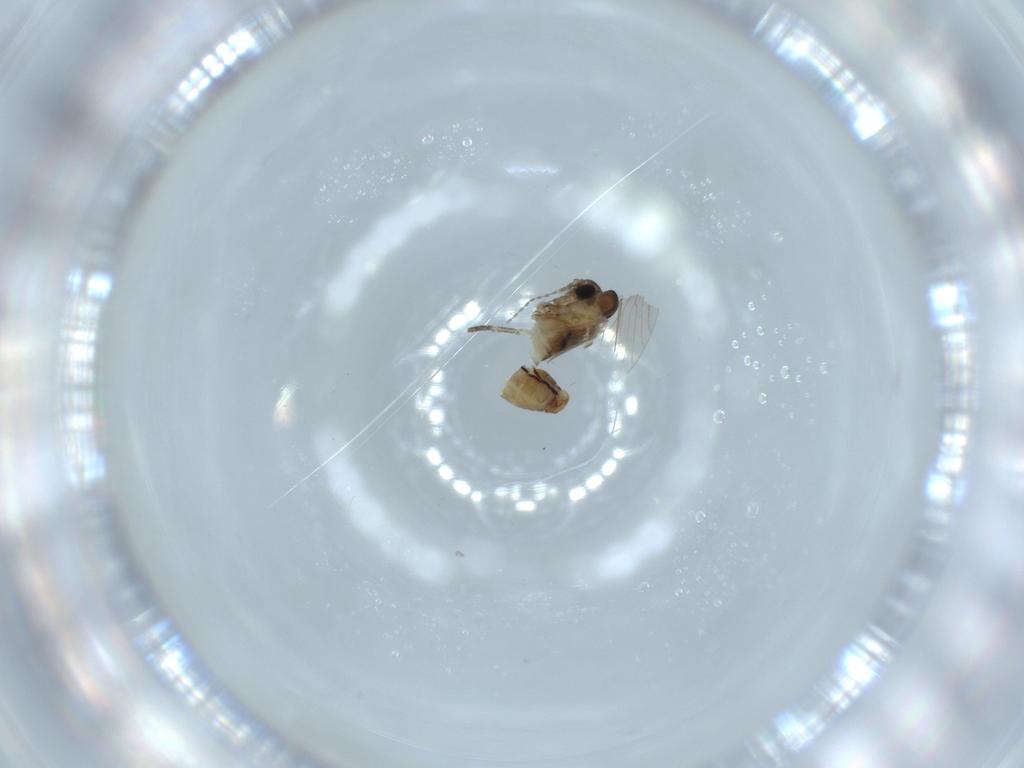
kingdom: Animalia
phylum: Arthropoda
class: Insecta
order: Diptera
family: Psychodidae
